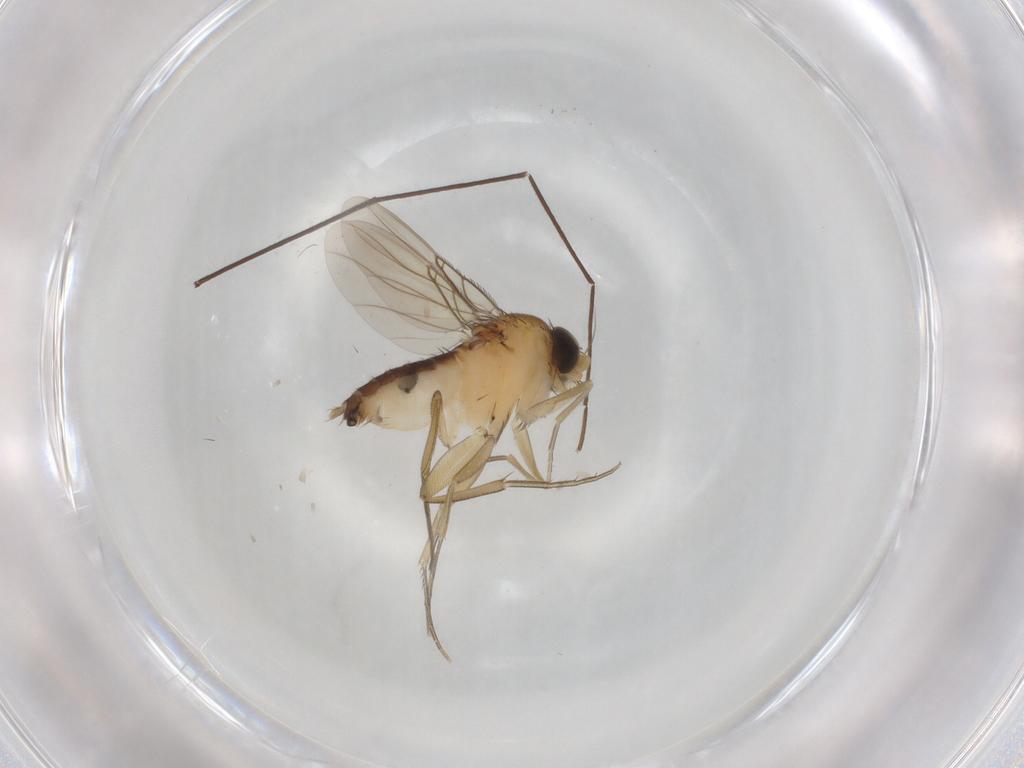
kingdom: Animalia
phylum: Arthropoda
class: Insecta
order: Diptera
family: Phoridae
